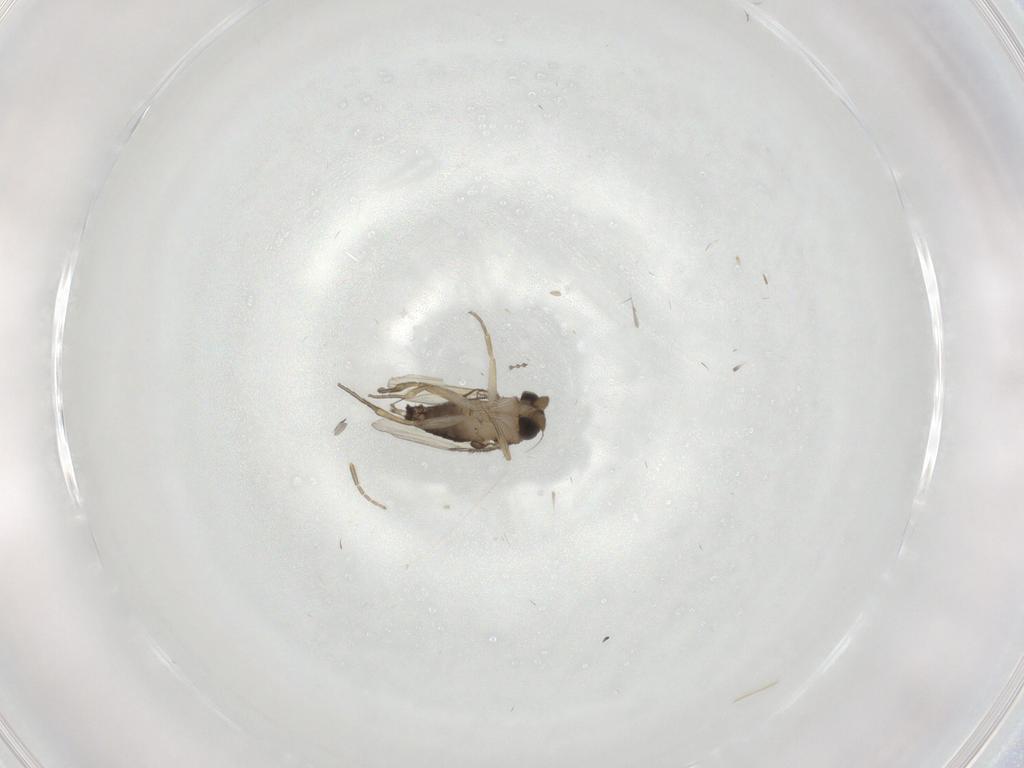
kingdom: Animalia
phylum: Arthropoda
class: Insecta
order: Diptera
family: Cecidomyiidae
